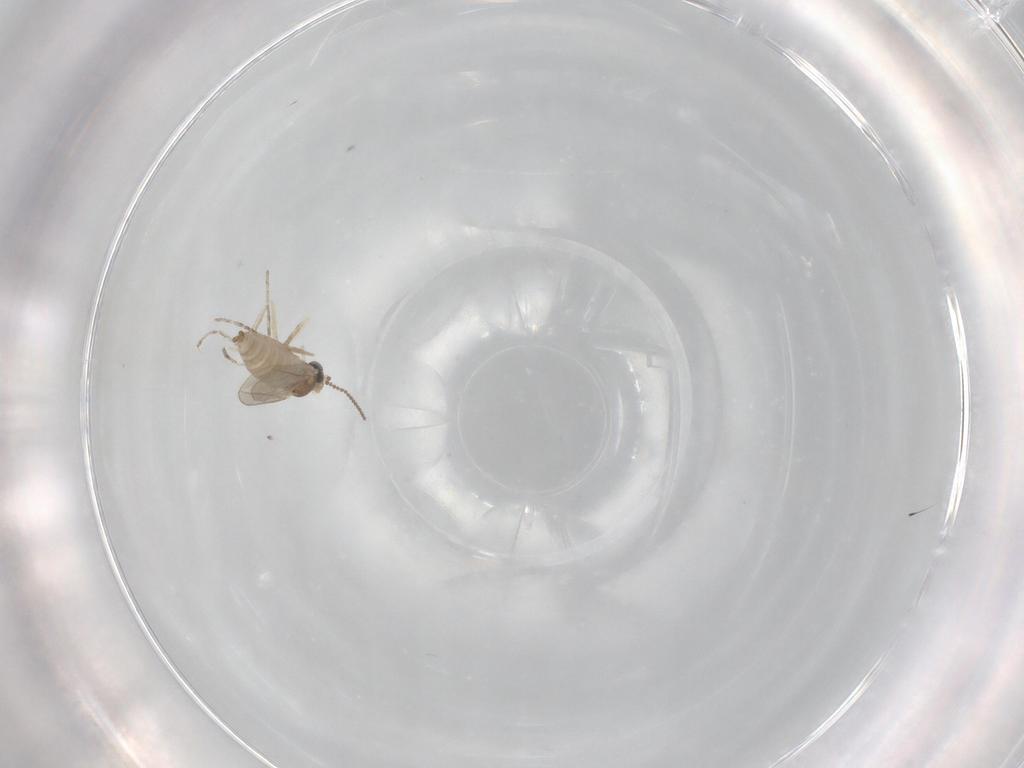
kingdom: Animalia
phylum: Arthropoda
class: Insecta
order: Diptera
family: Cecidomyiidae
